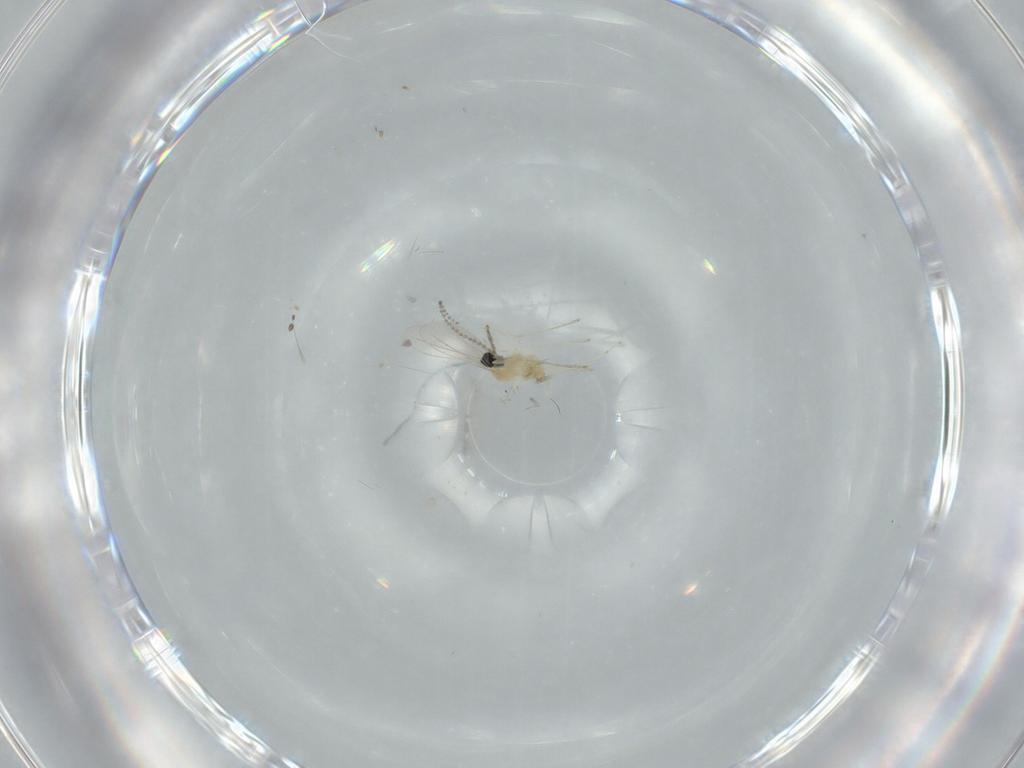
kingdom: Animalia
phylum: Arthropoda
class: Insecta
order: Diptera
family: Cecidomyiidae
